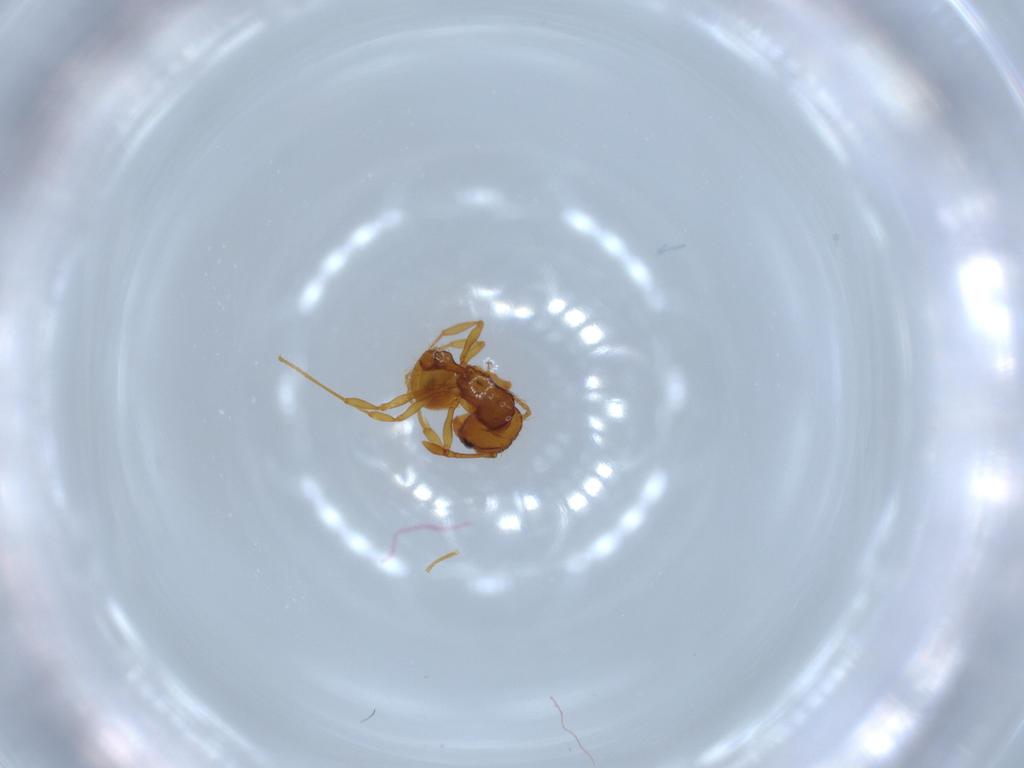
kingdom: Animalia
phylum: Arthropoda
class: Insecta
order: Hymenoptera
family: Formicidae
